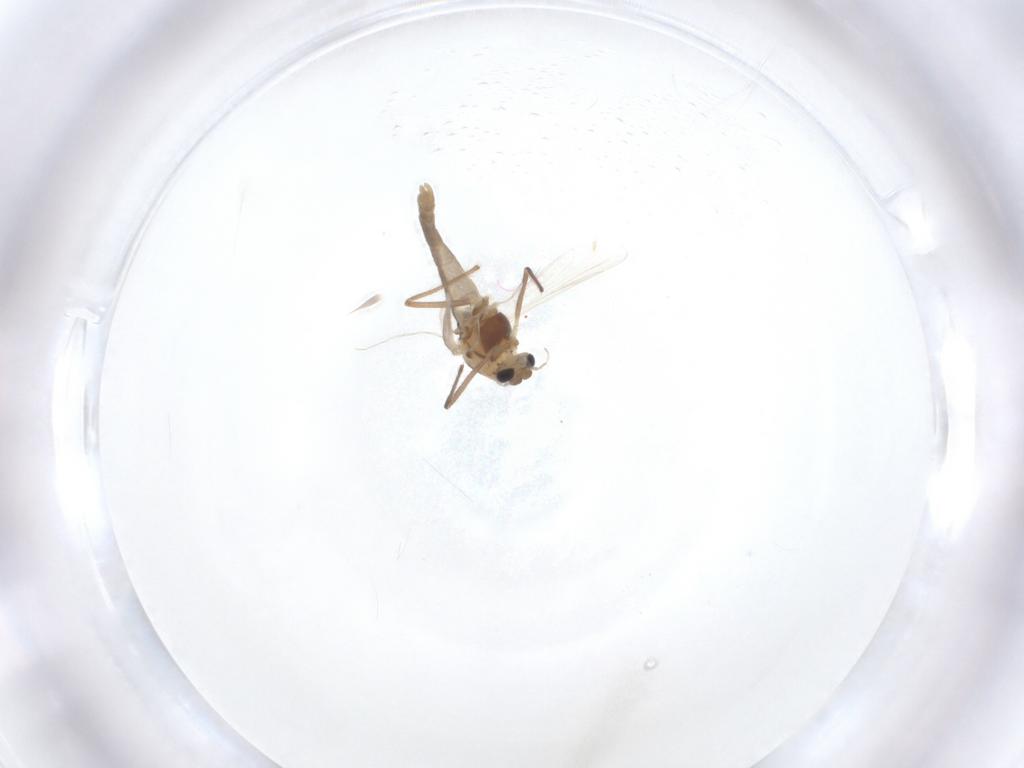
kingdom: Animalia
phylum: Arthropoda
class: Insecta
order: Diptera
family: Chironomidae
